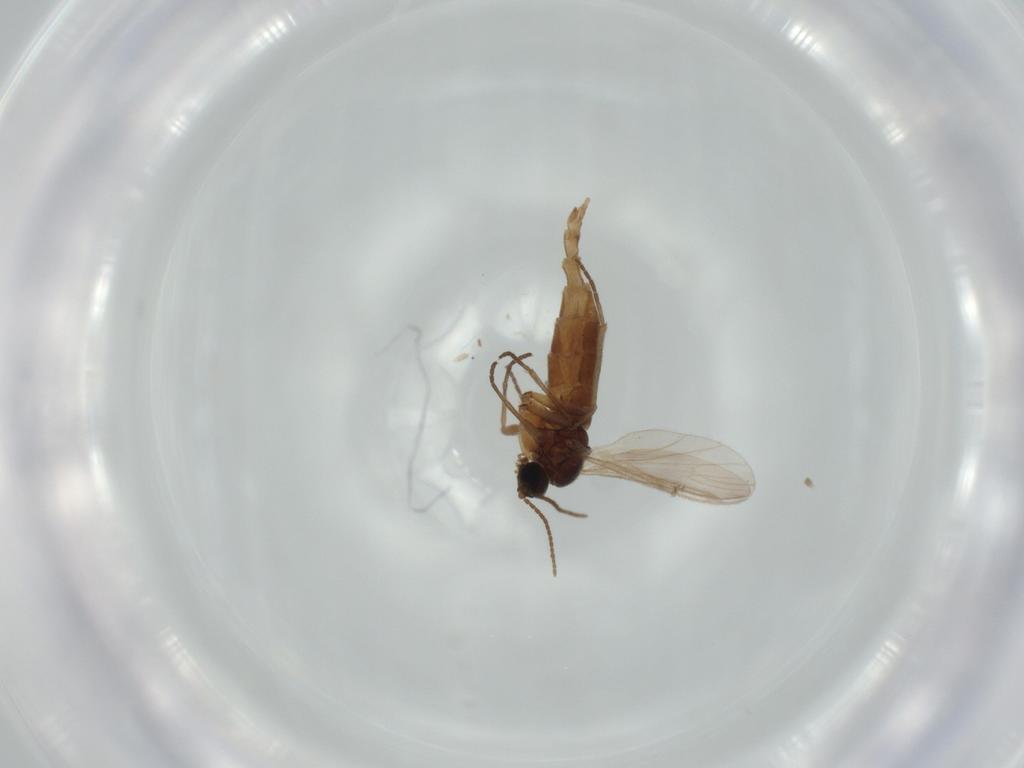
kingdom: Animalia
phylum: Arthropoda
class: Insecta
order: Diptera
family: Sciaridae
